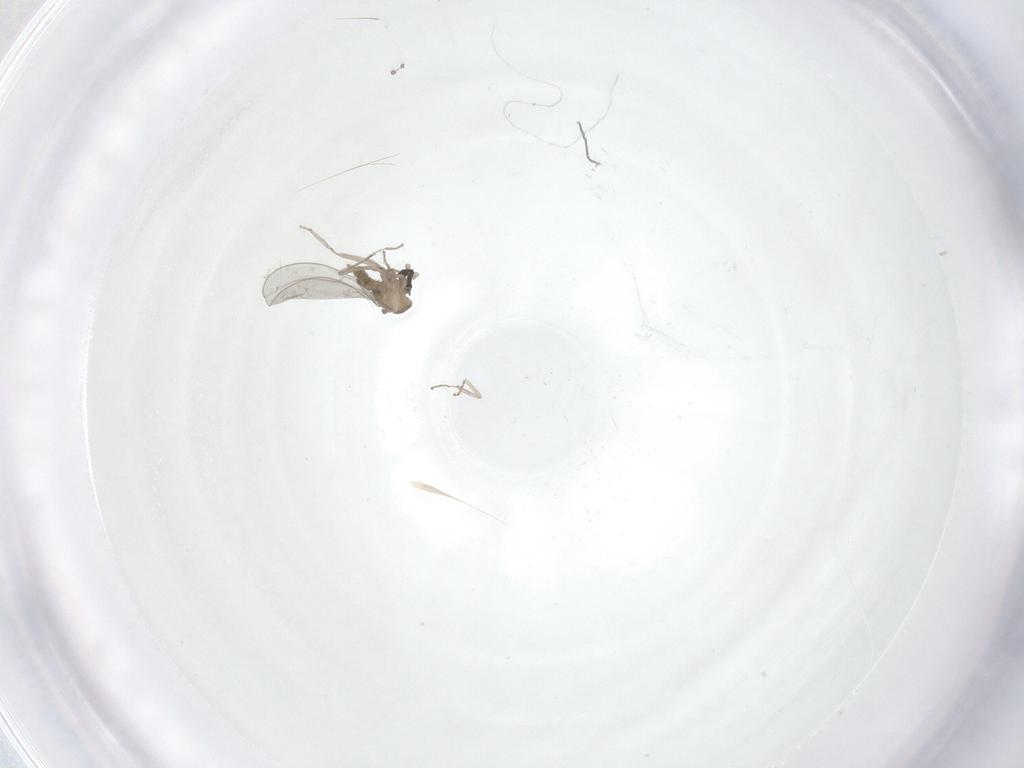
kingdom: Animalia
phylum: Arthropoda
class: Insecta
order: Diptera
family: Cecidomyiidae
